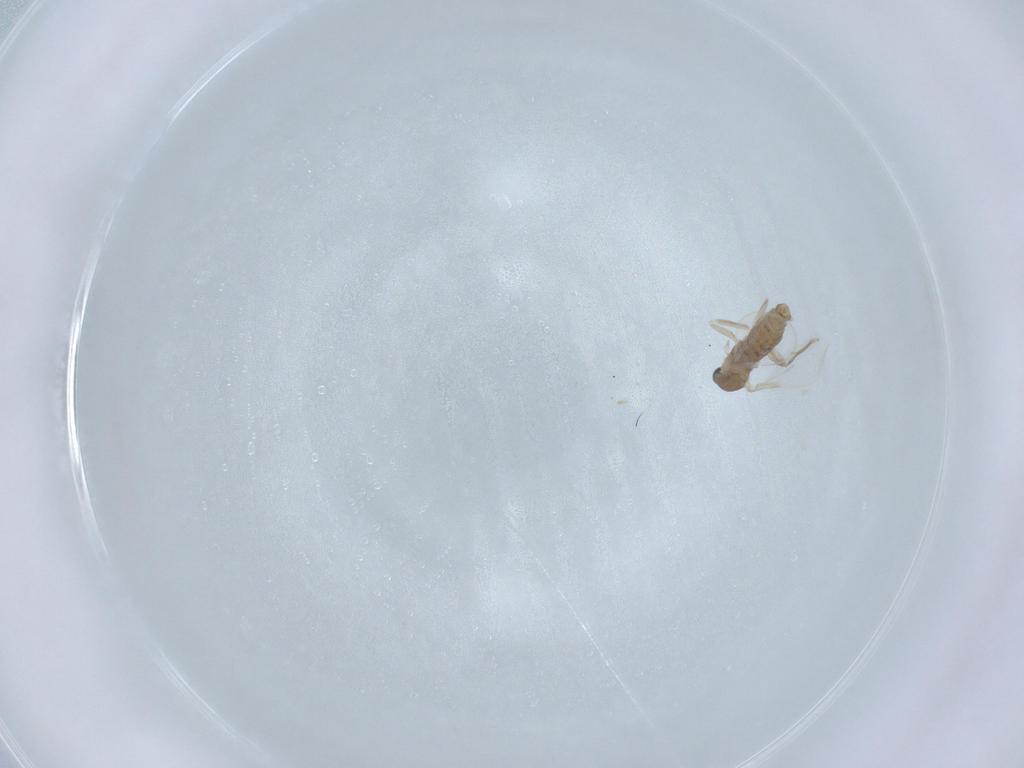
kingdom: Animalia
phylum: Arthropoda
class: Insecta
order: Diptera
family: Cecidomyiidae
